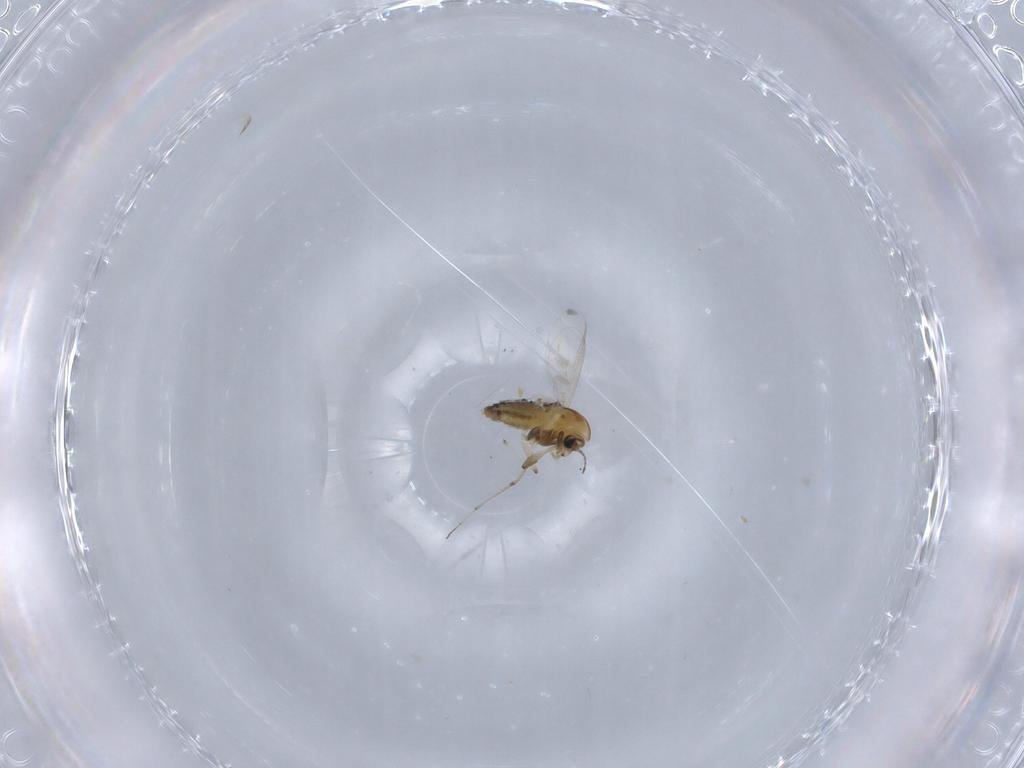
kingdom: Animalia
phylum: Arthropoda
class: Insecta
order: Diptera
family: Chironomidae
